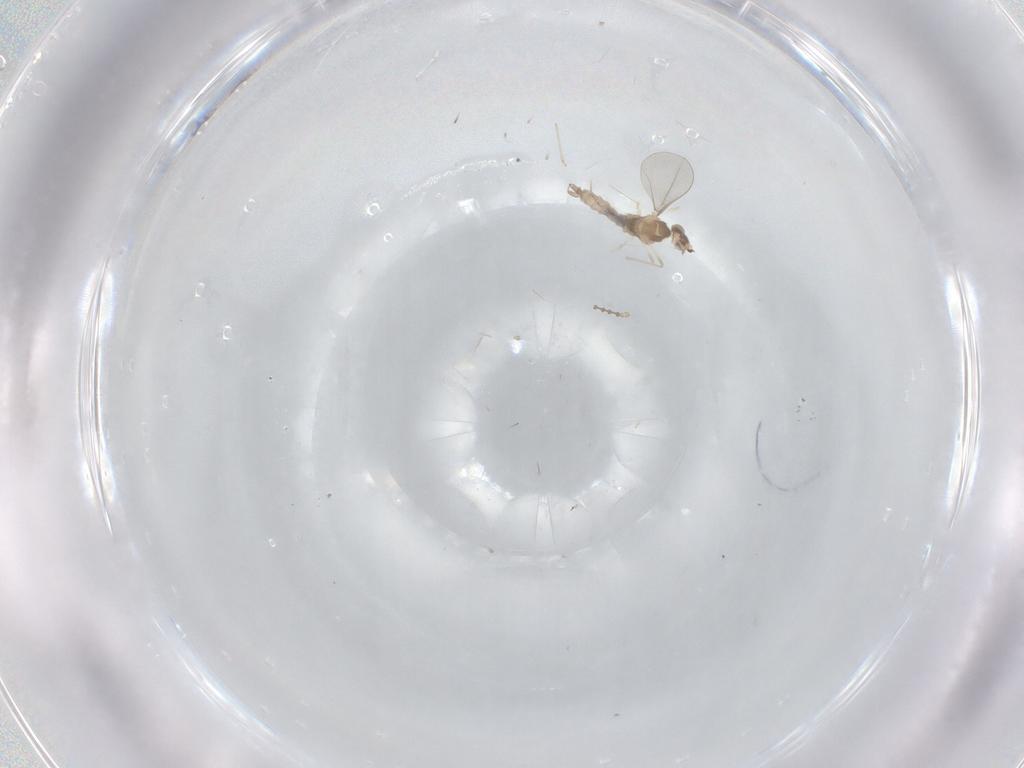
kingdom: Animalia
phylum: Arthropoda
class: Insecta
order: Diptera
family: Cecidomyiidae
